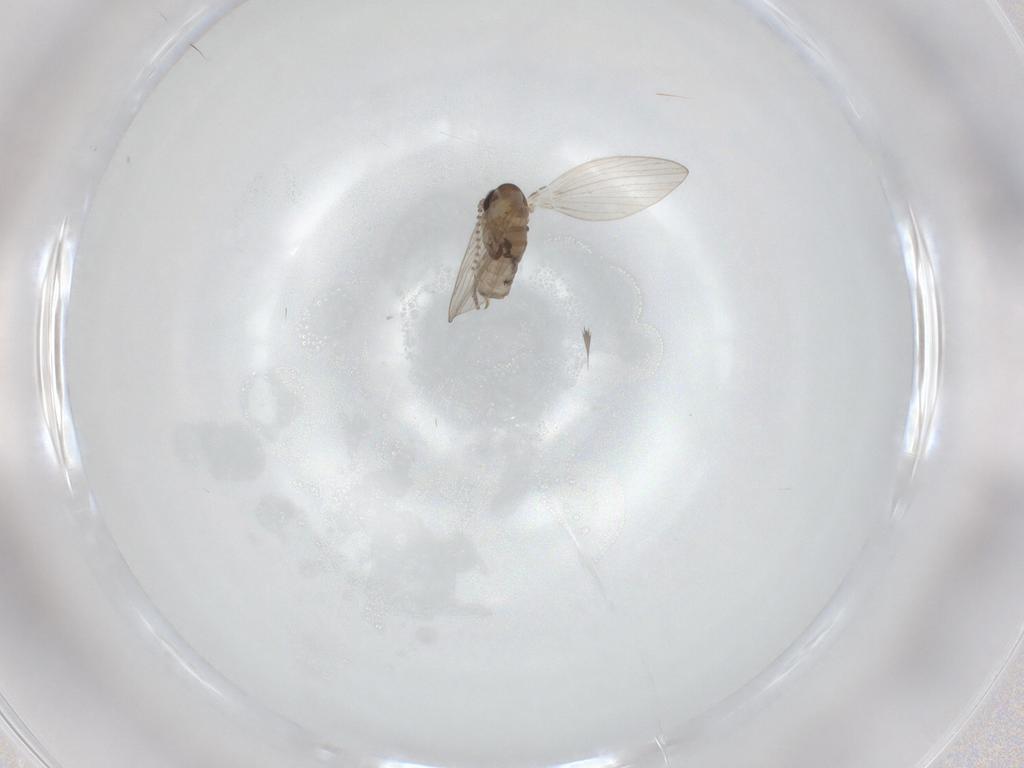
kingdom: Animalia
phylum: Arthropoda
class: Insecta
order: Diptera
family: Psychodidae
